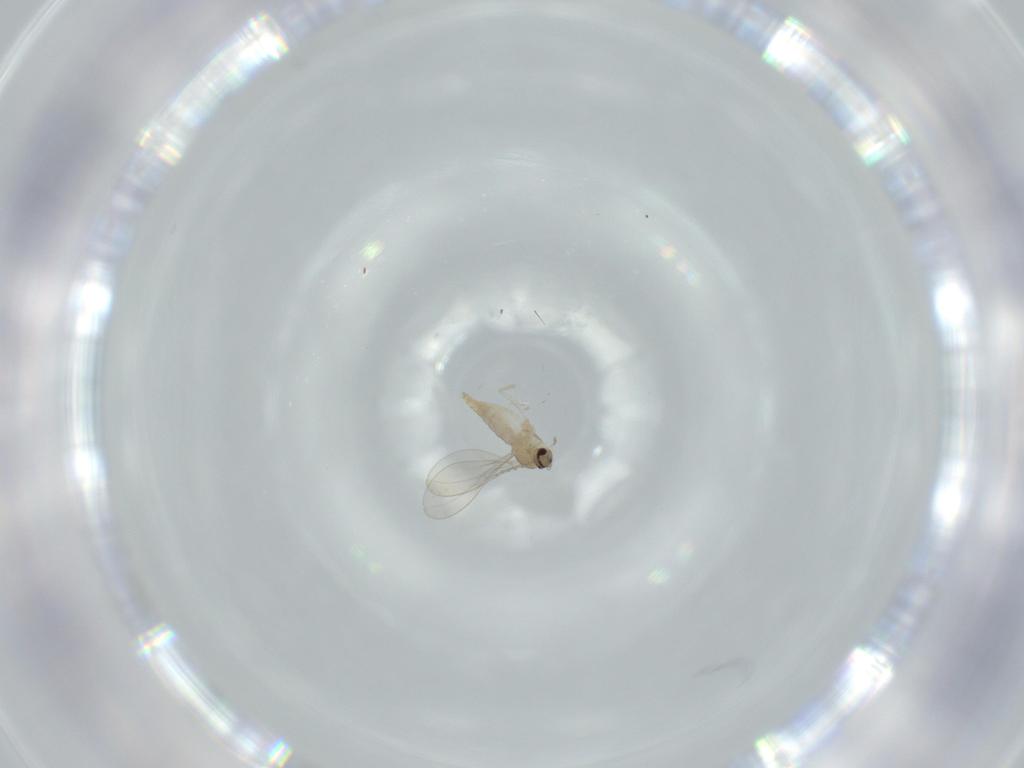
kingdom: Animalia
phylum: Arthropoda
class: Insecta
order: Diptera
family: Cecidomyiidae
